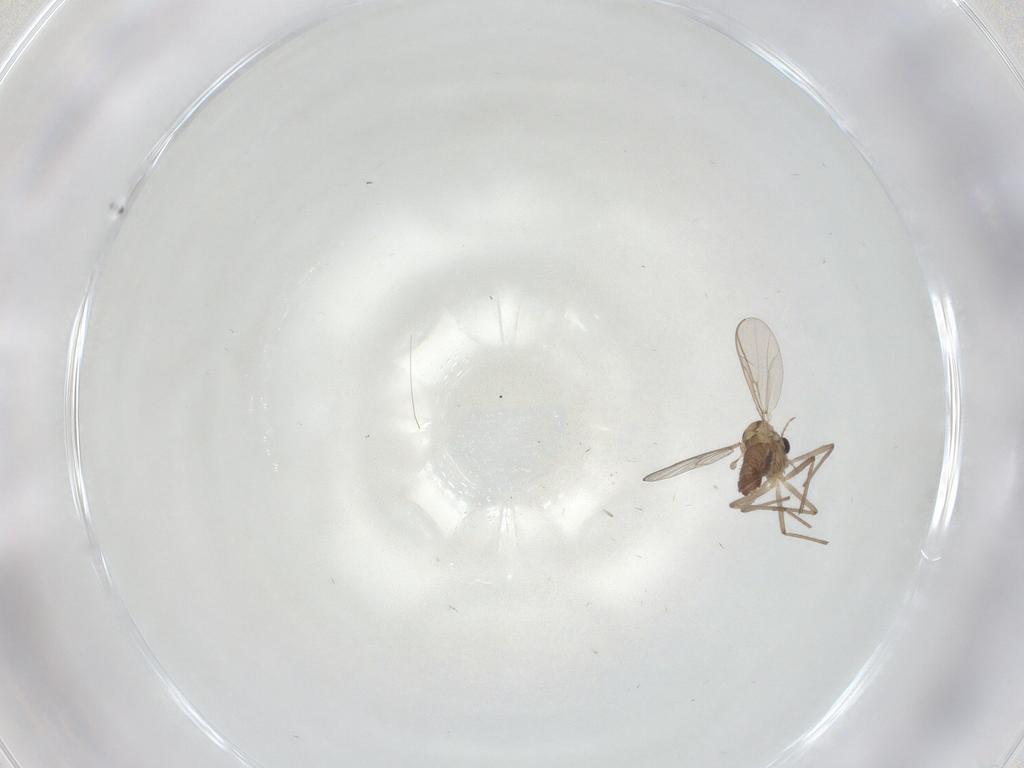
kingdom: Animalia
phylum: Arthropoda
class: Insecta
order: Diptera
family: Chironomidae
